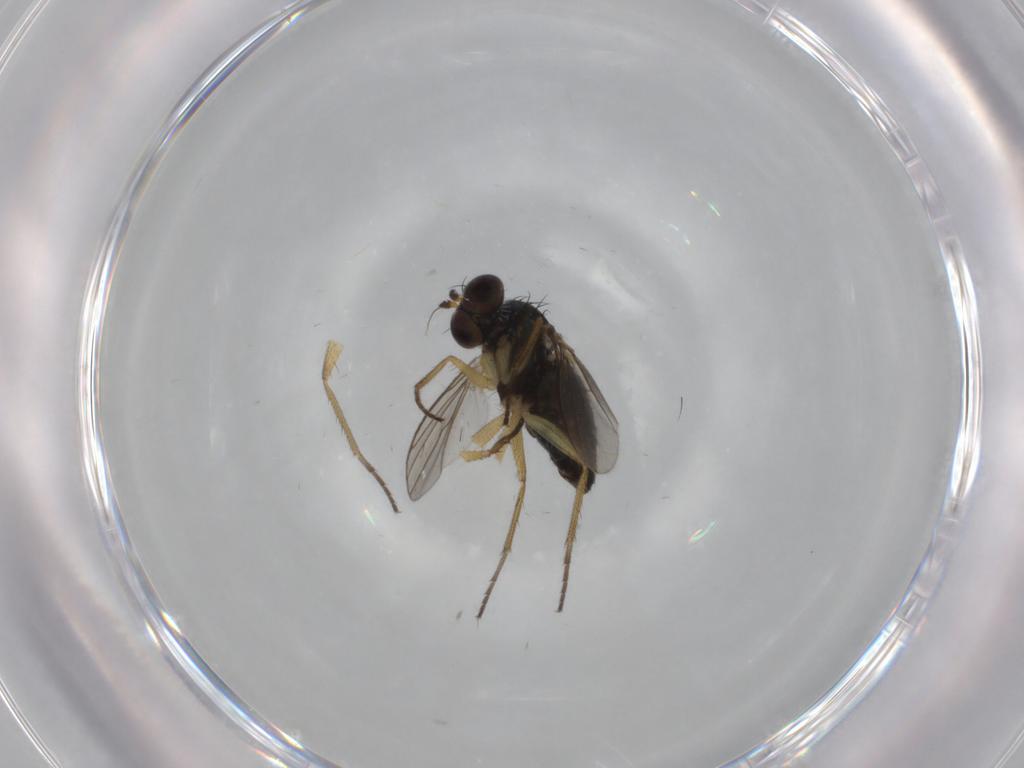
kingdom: Animalia
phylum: Arthropoda
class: Insecta
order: Diptera
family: Dolichopodidae
